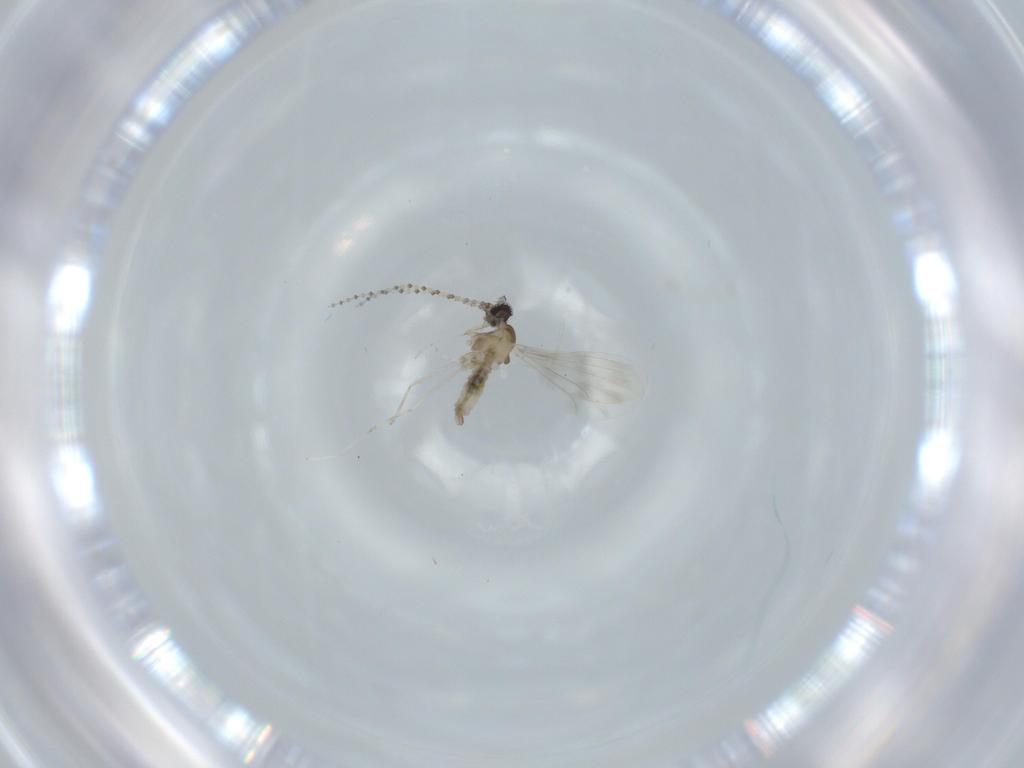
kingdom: Animalia
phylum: Arthropoda
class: Insecta
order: Diptera
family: Cecidomyiidae
